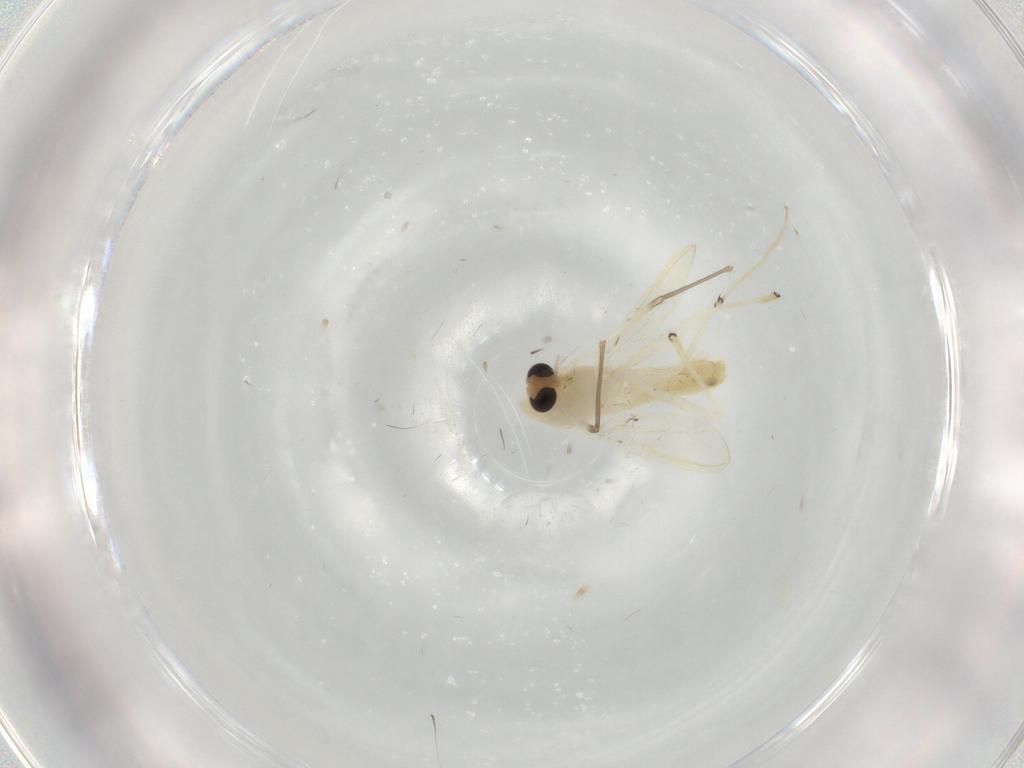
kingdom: Animalia
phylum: Arthropoda
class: Insecta
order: Diptera
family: Chironomidae
